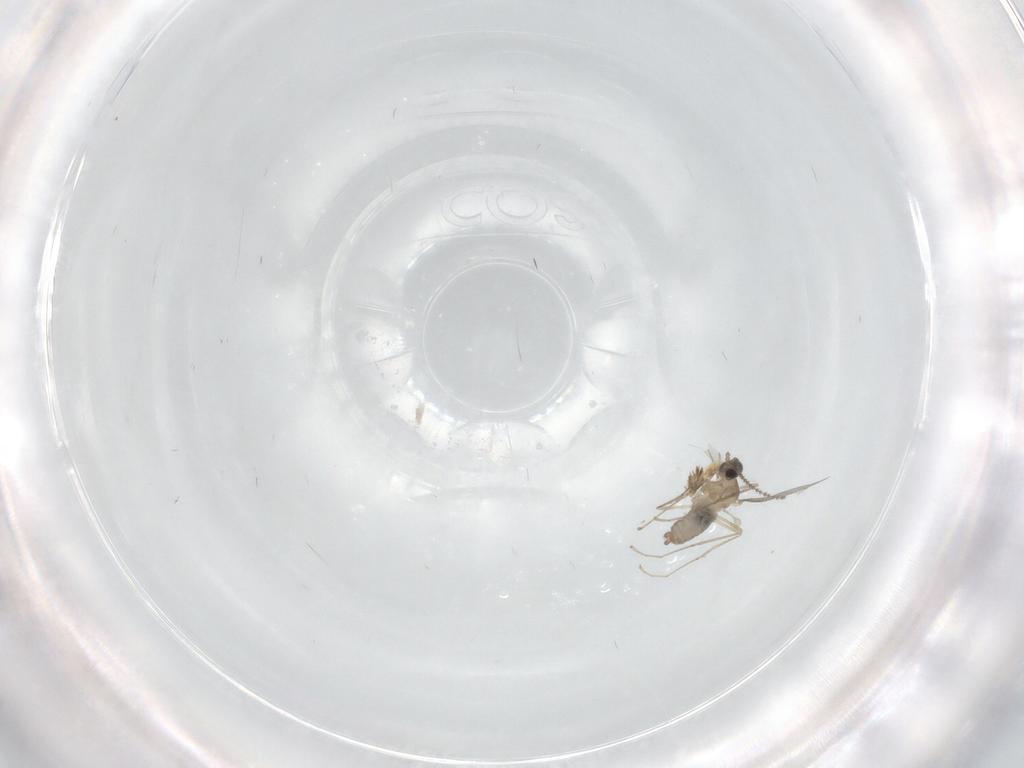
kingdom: Animalia
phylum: Arthropoda
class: Insecta
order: Diptera
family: Cecidomyiidae
